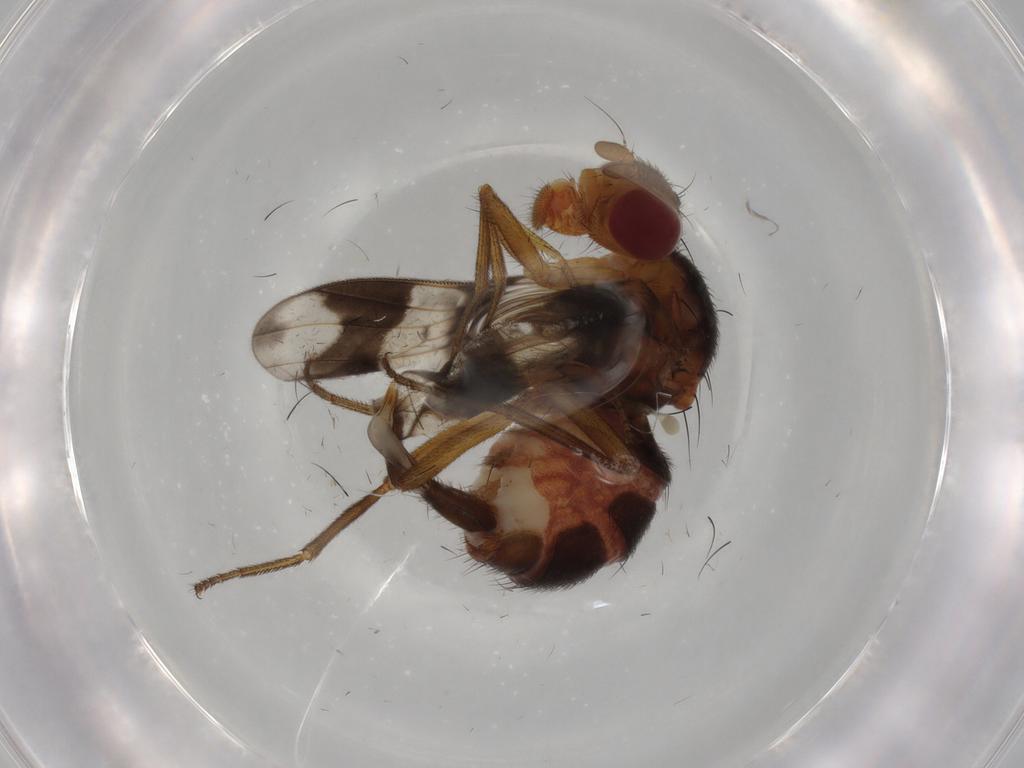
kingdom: Animalia
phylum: Arthropoda
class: Insecta
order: Diptera
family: Richardiidae
